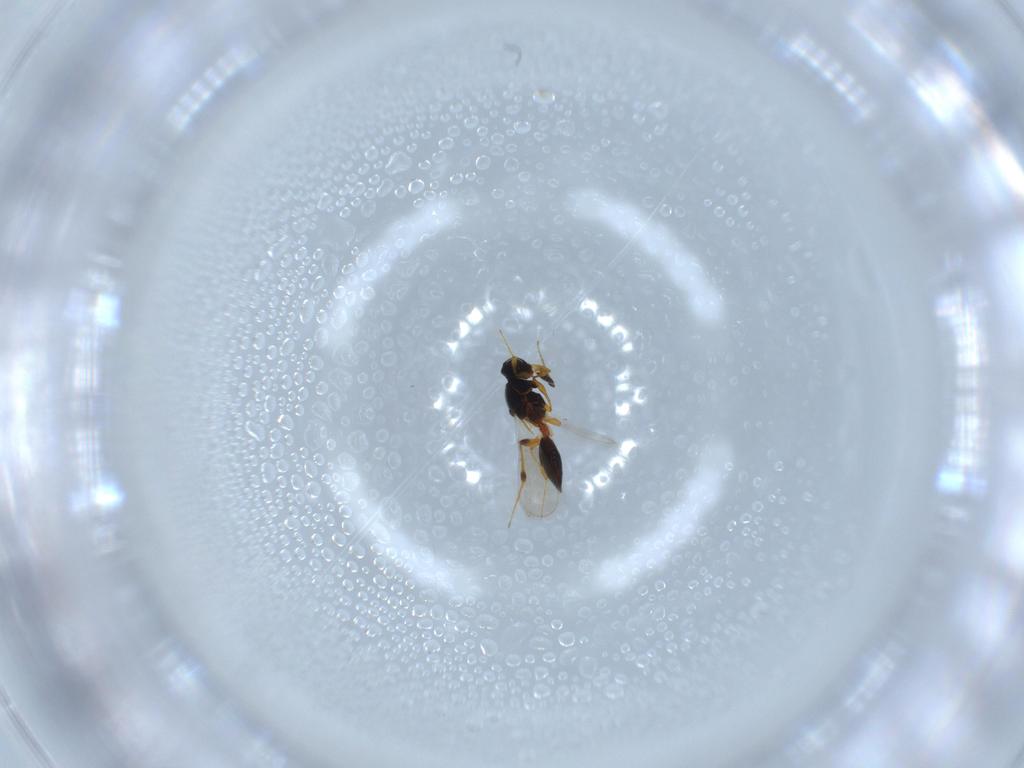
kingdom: Animalia
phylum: Arthropoda
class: Insecta
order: Hymenoptera
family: Platygastridae
